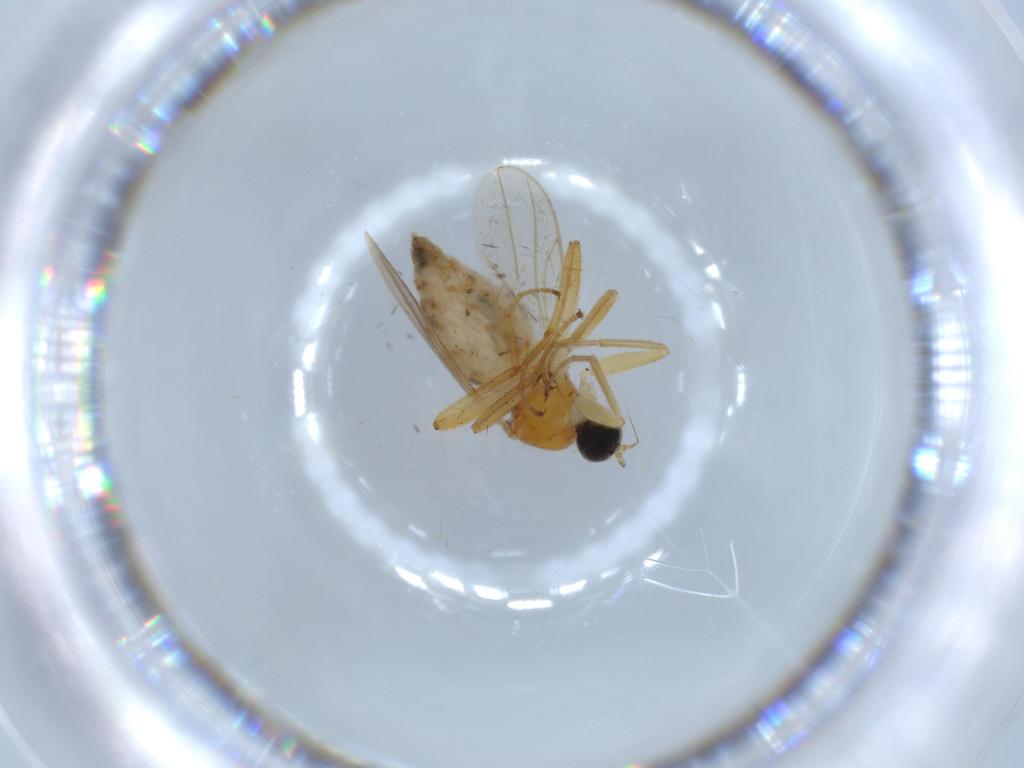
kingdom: Animalia
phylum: Arthropoda
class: Insecta
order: Diptera
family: Hybotidae
